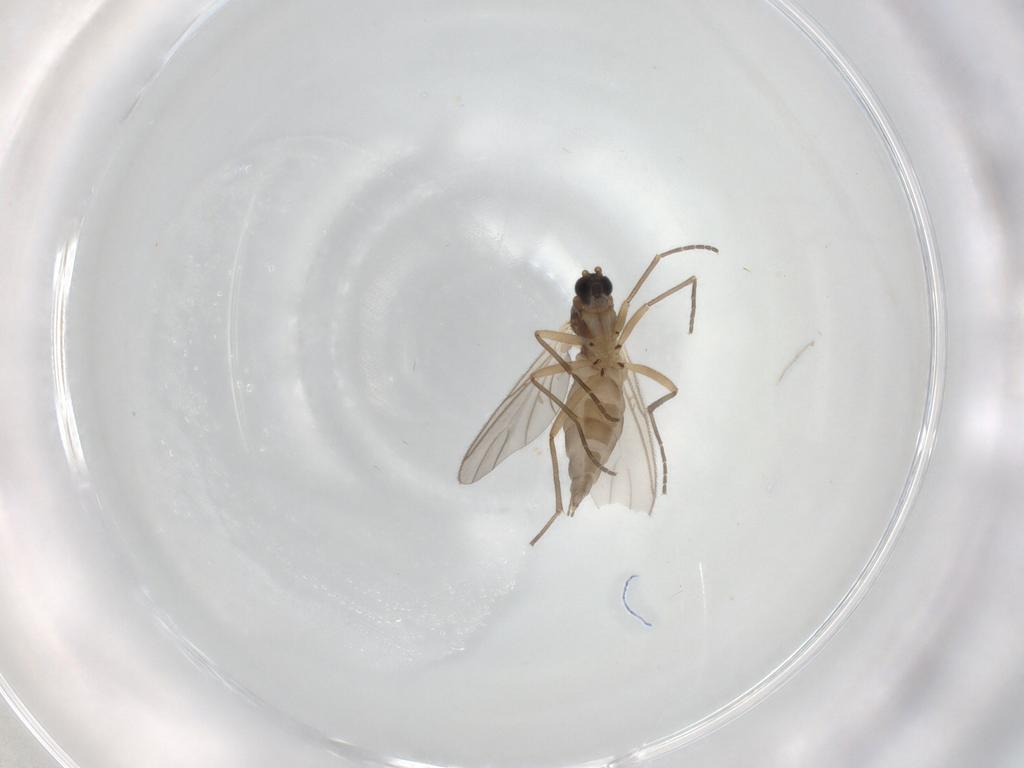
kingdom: Animalia
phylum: Arthropoda
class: Insecta
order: Diptera
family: Sciaridae
